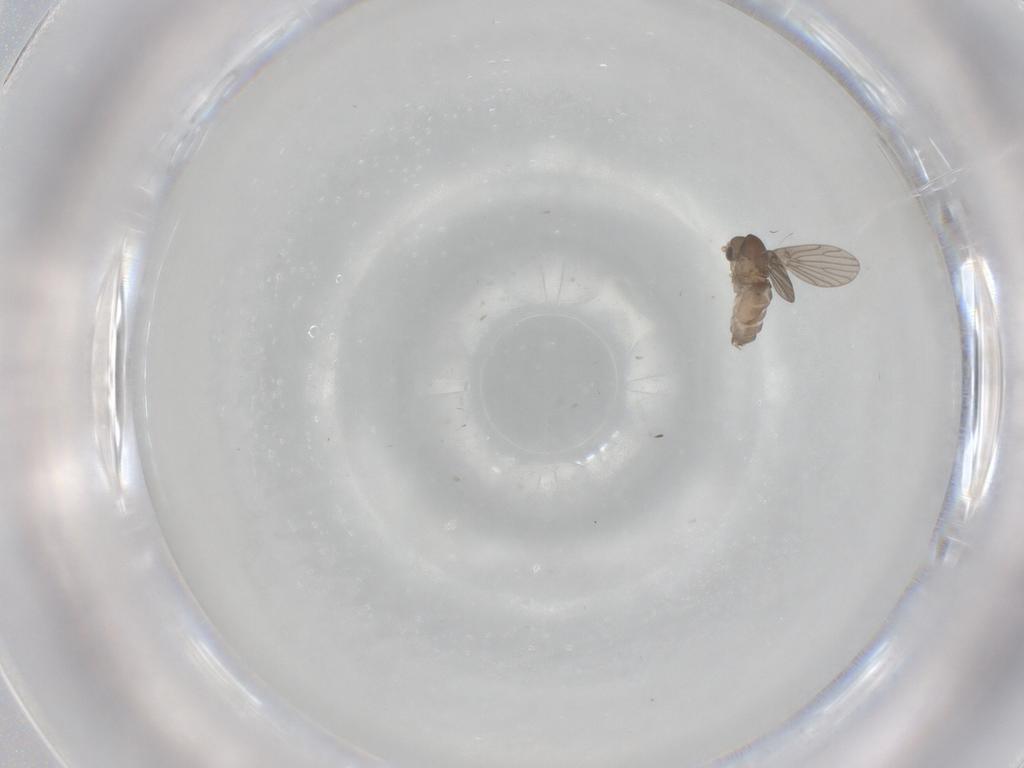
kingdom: Animalia
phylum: Arthropoda
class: Insecta
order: Diptera
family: Psychodidae
